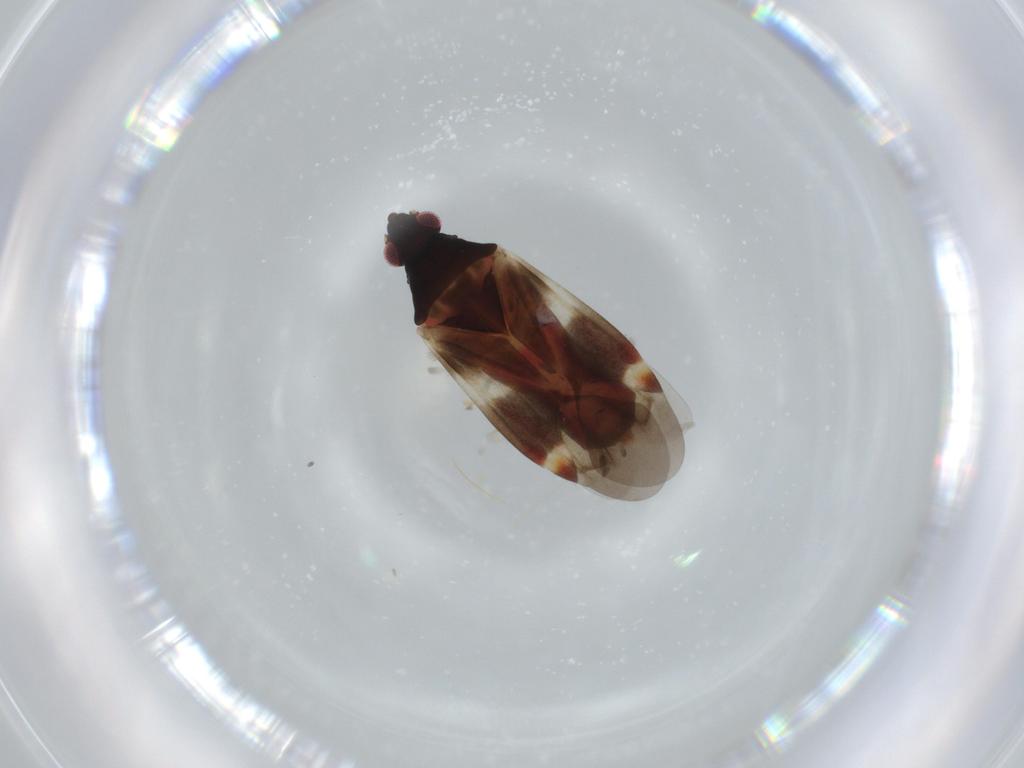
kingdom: Animalia
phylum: Arthropoda
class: Insecta
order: Hemiptera
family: Miridae
